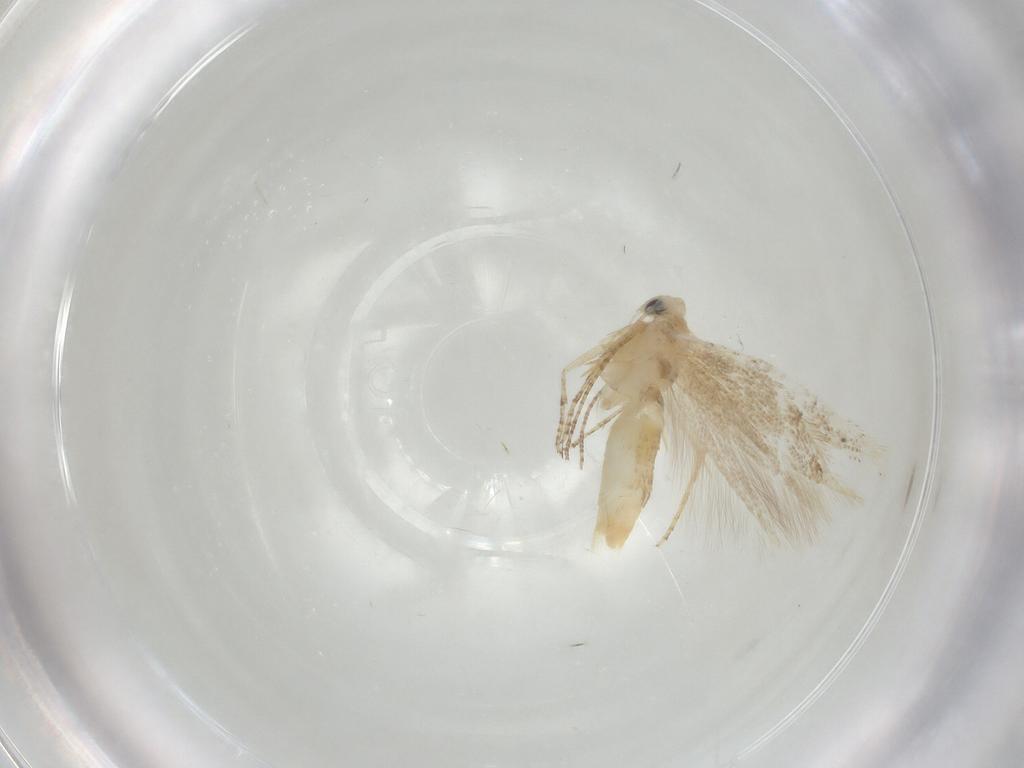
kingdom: Animalia
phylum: Arthropoda
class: Insecta
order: Lepidoptera
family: Bucculatricidae
